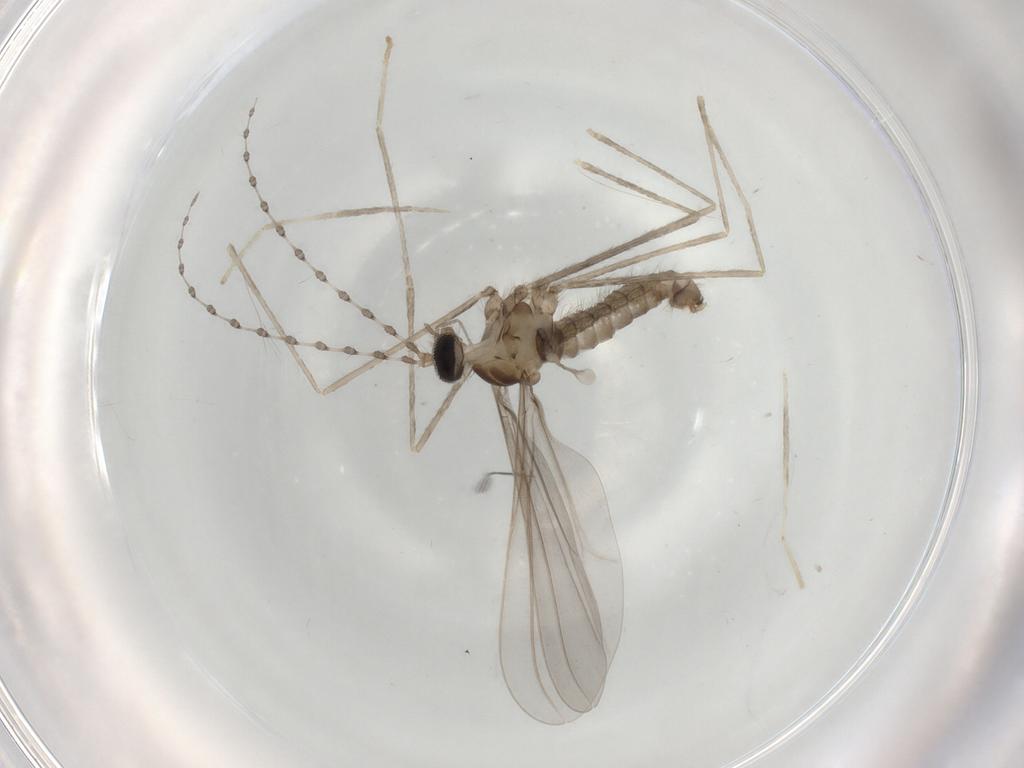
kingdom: Animalia
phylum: Arthropoda
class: Insecta
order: Diptera
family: Sciaridae
